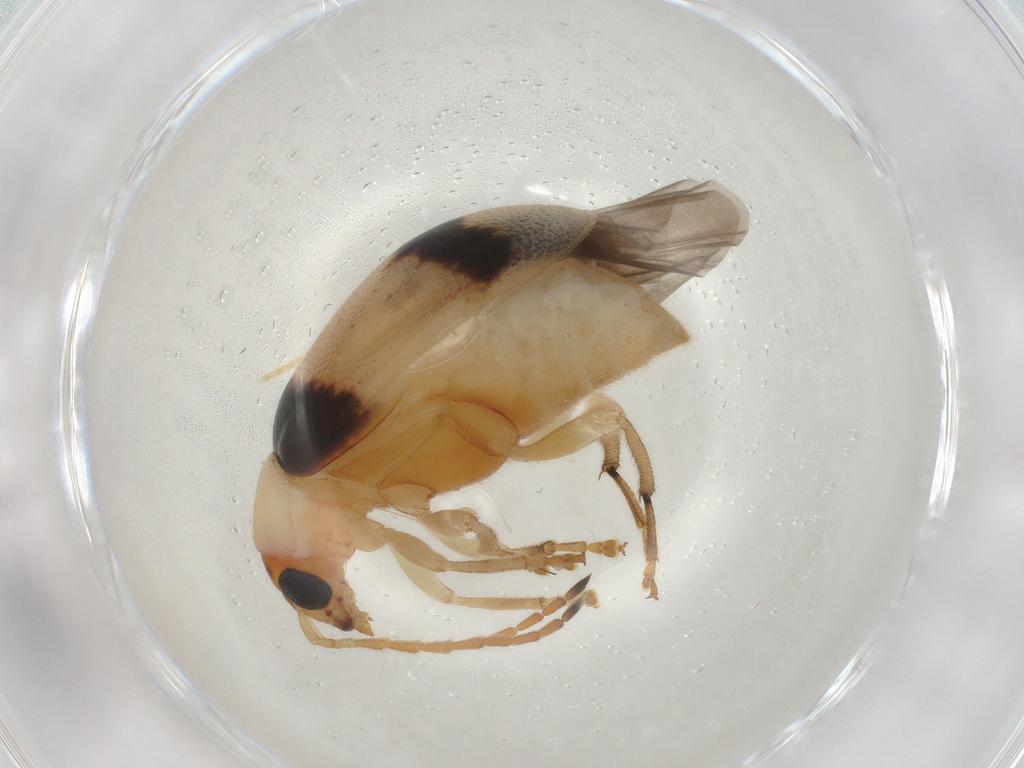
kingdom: Animalia
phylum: Arthropoda
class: Insecta
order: Coleoptera
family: Chrysomelidae
